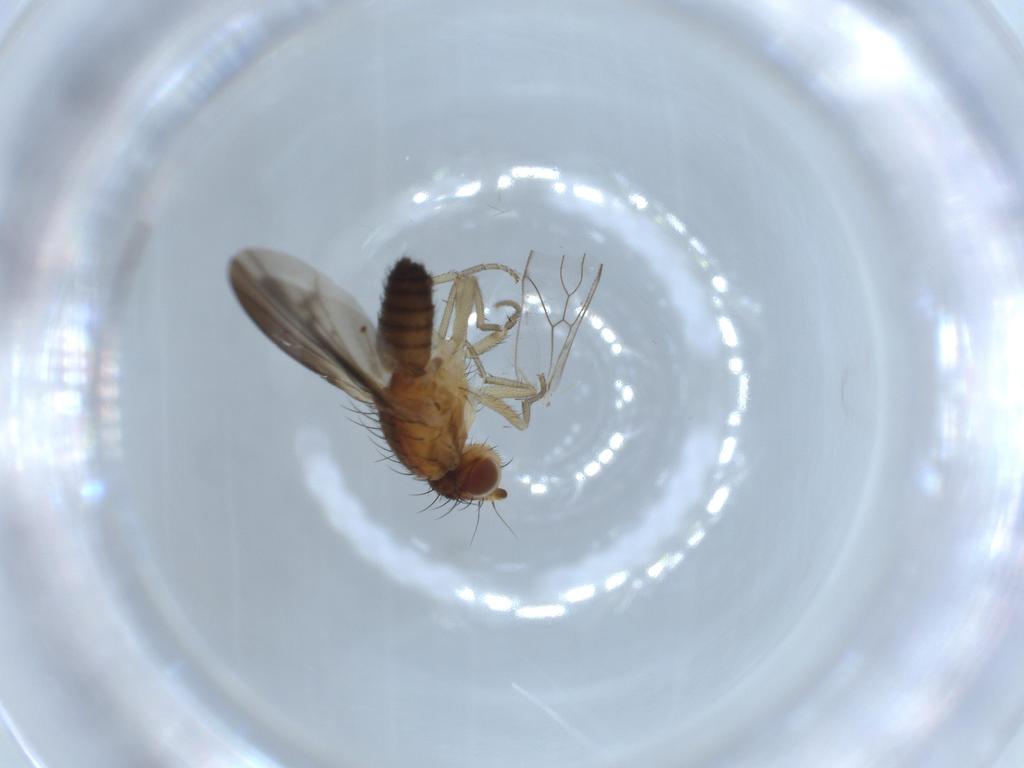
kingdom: Animalia
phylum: Arthropoda
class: Insecta
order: Diptera
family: Heleomyzidae
